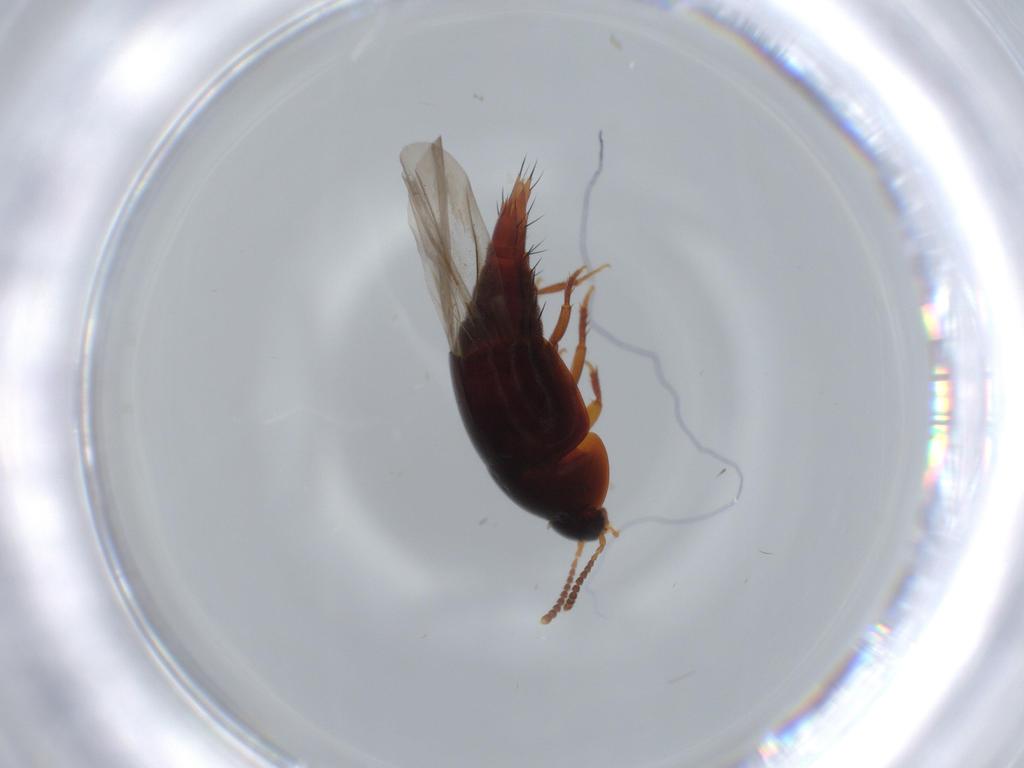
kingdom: Animalia
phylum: Arthropoda
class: Insecta
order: Coleoptera
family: Staphylinidae
